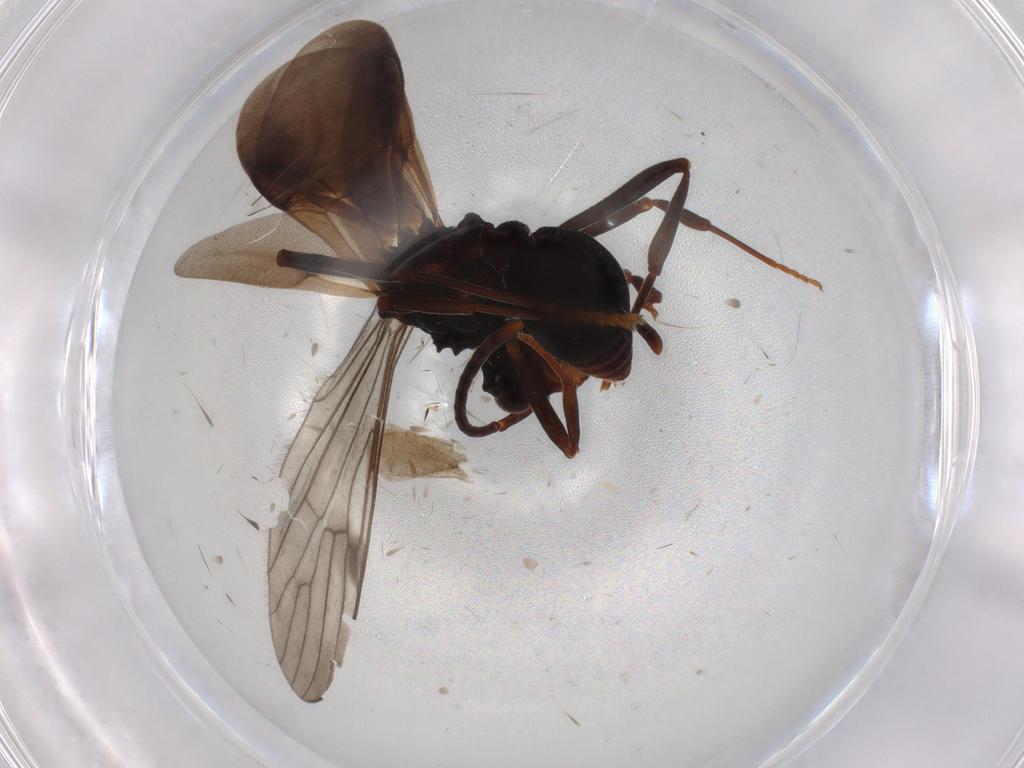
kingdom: Animalia
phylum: Arthropoda
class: Insecta
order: Hymenoptera
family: Formicidae
